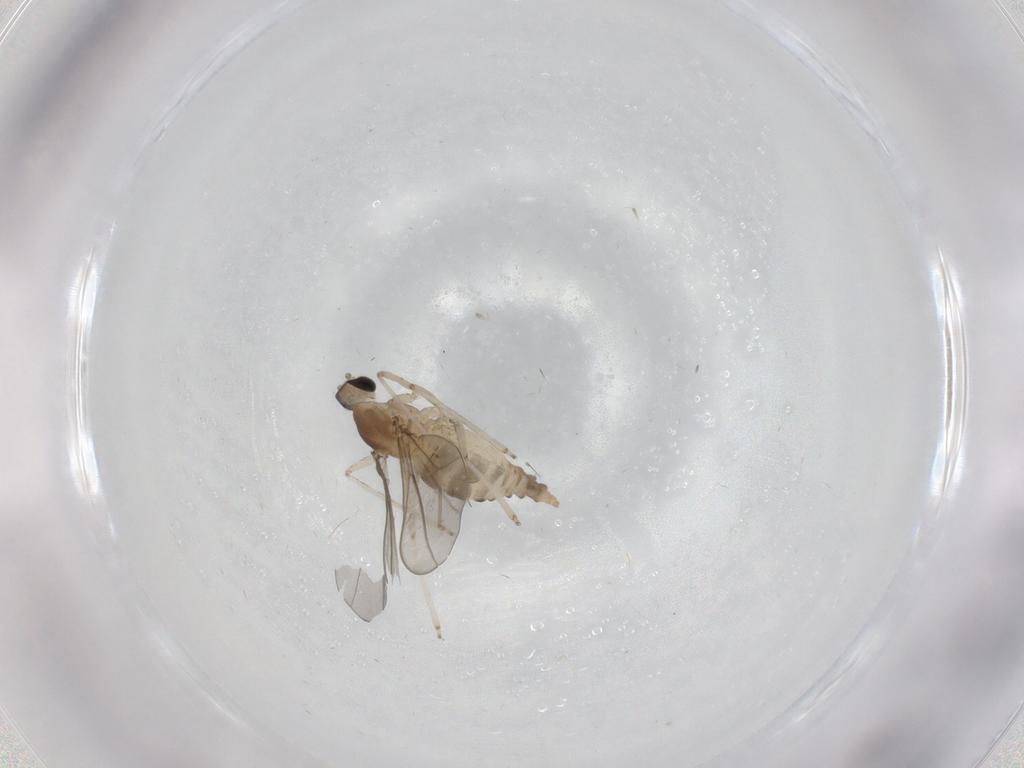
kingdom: Animalia
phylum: Arthropoda
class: Insecta
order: Diptera
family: Cecidomyiidae
